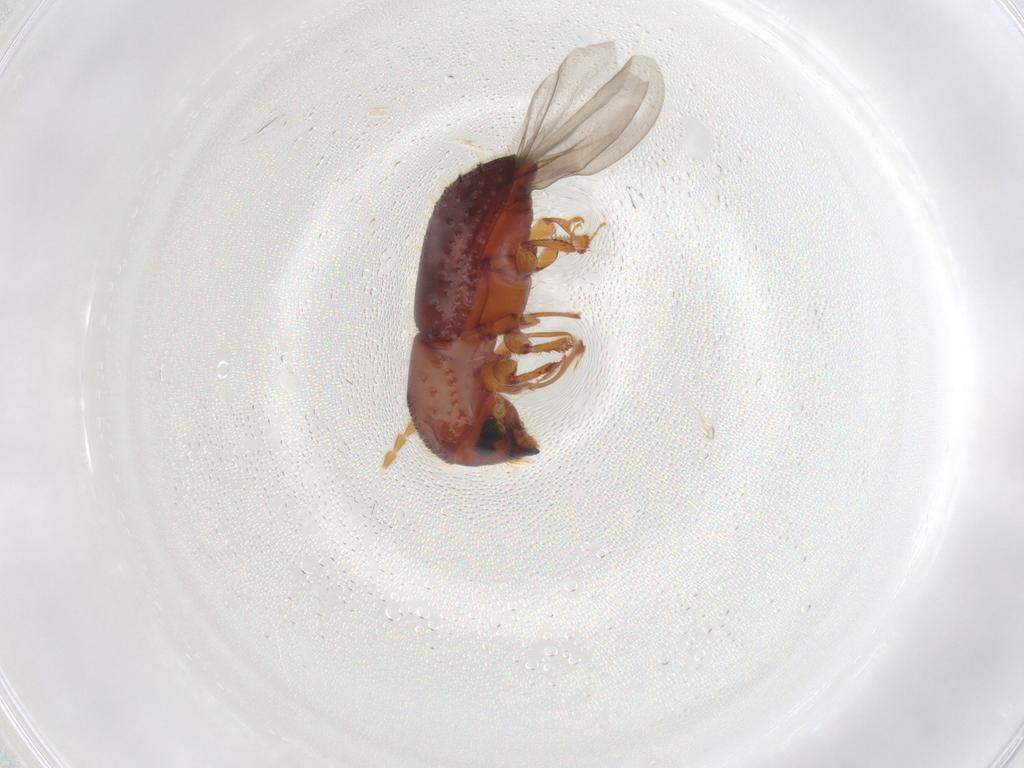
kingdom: Animalia
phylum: Arthropoda
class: Insecta
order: Coleoptera
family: Ptilodactylidae
